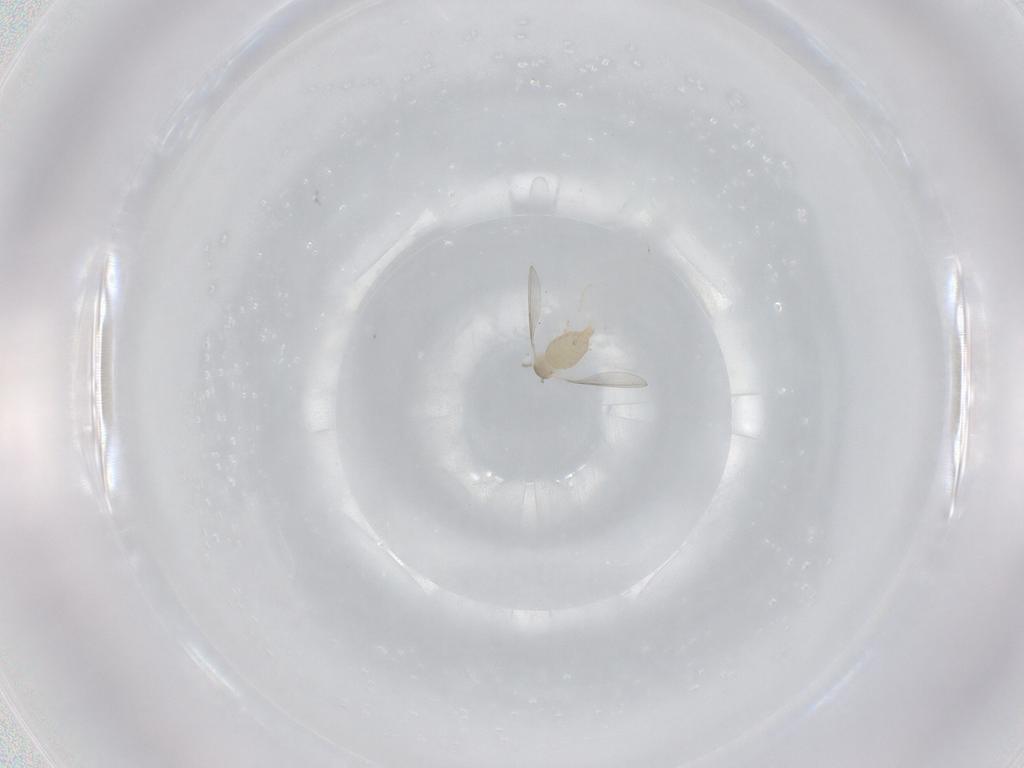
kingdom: Animalia
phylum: Arthropoda
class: Insecta
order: Diptera
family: Cecidomyiidae
